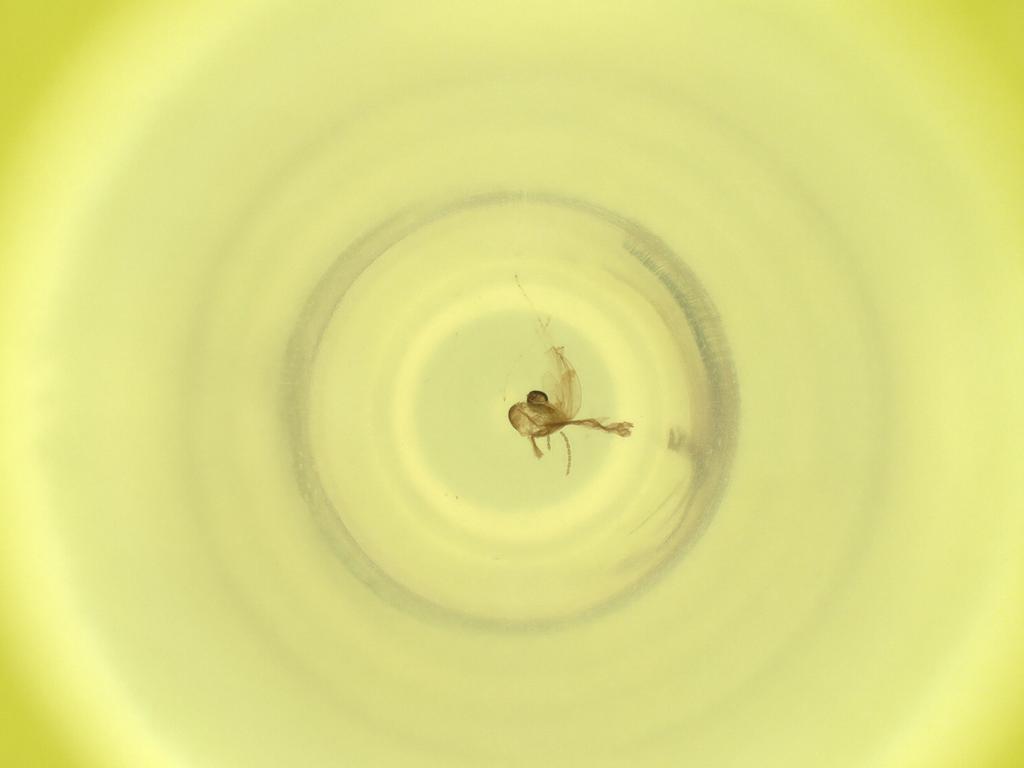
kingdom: Animalia
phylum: Arthropoda
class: Insecta
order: Diptera
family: Cecidomyiidae
